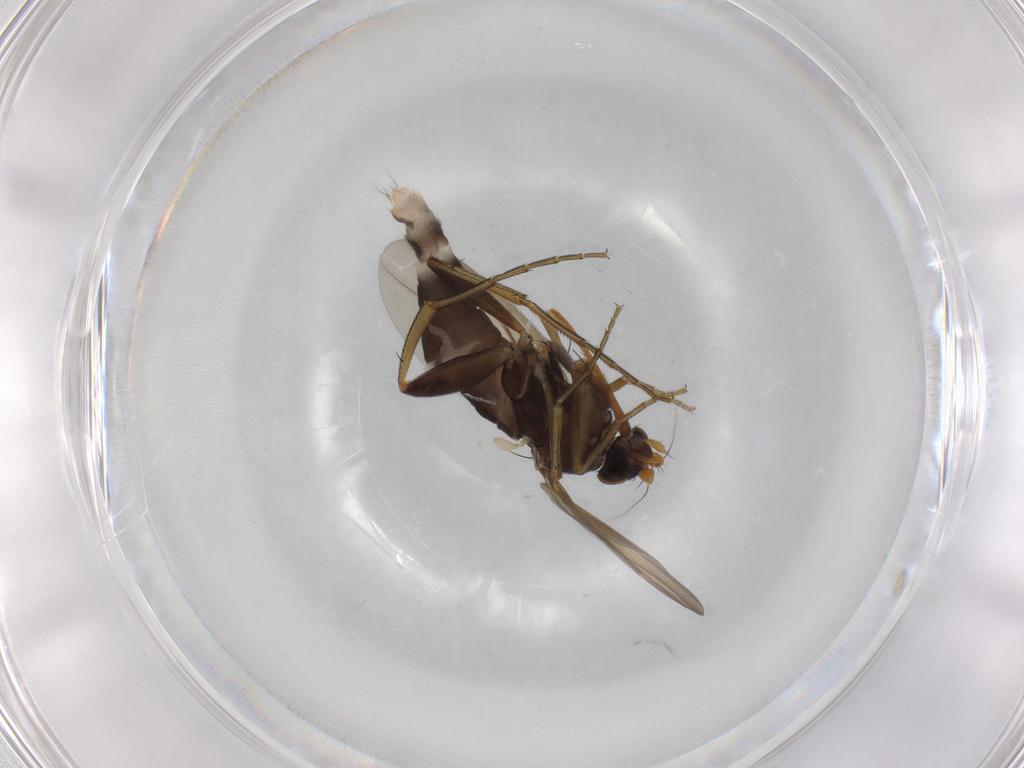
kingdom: Animalia
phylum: Arthropoda
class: Insecta
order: Diptera
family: Phoridae
